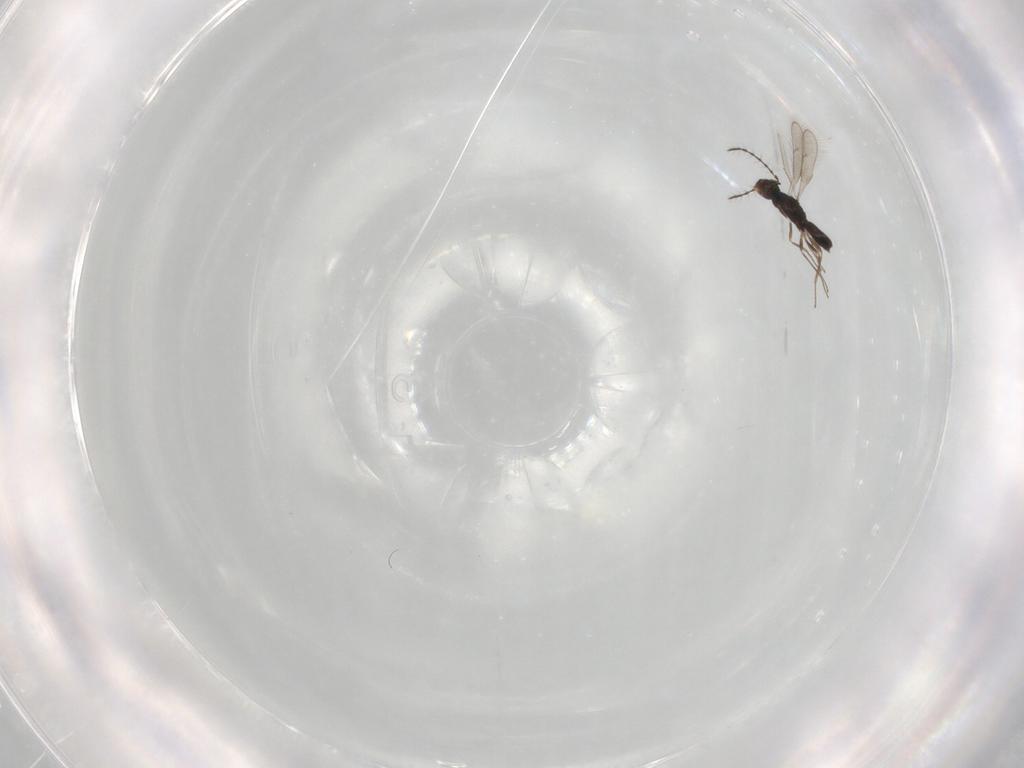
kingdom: Animalia
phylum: Arthropoda
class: Insecta
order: Hymenoptera
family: Pteromalidae
